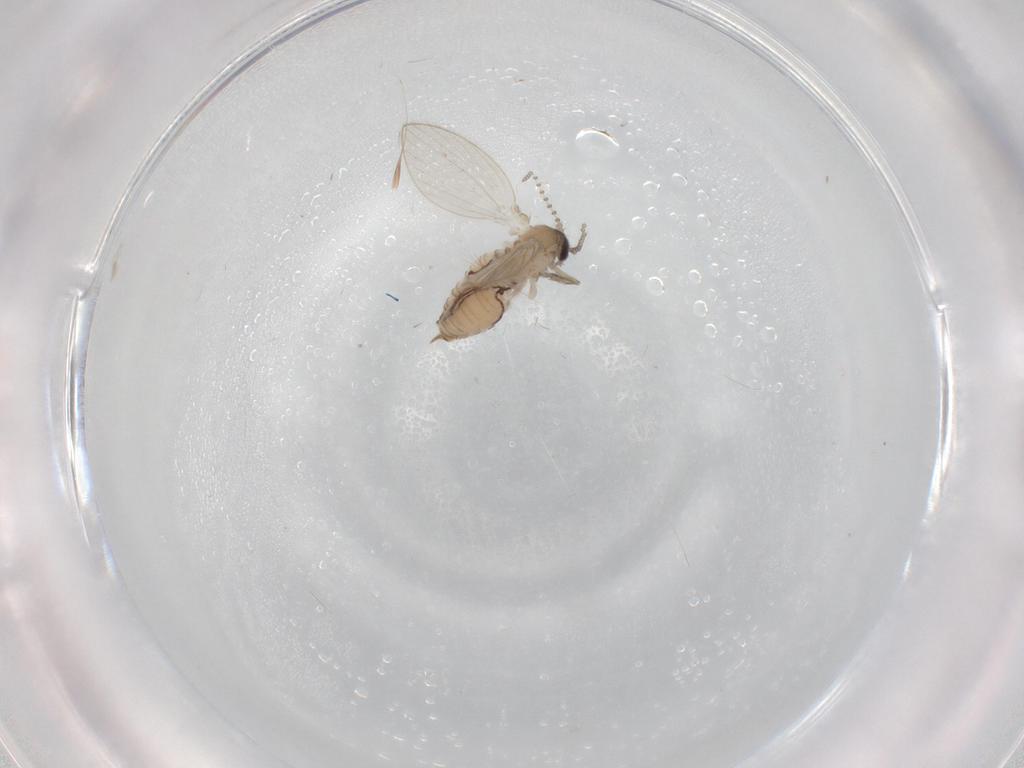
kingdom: Animalia
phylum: Arthropoda
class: Insecta
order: Diptera
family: Psychodidae
